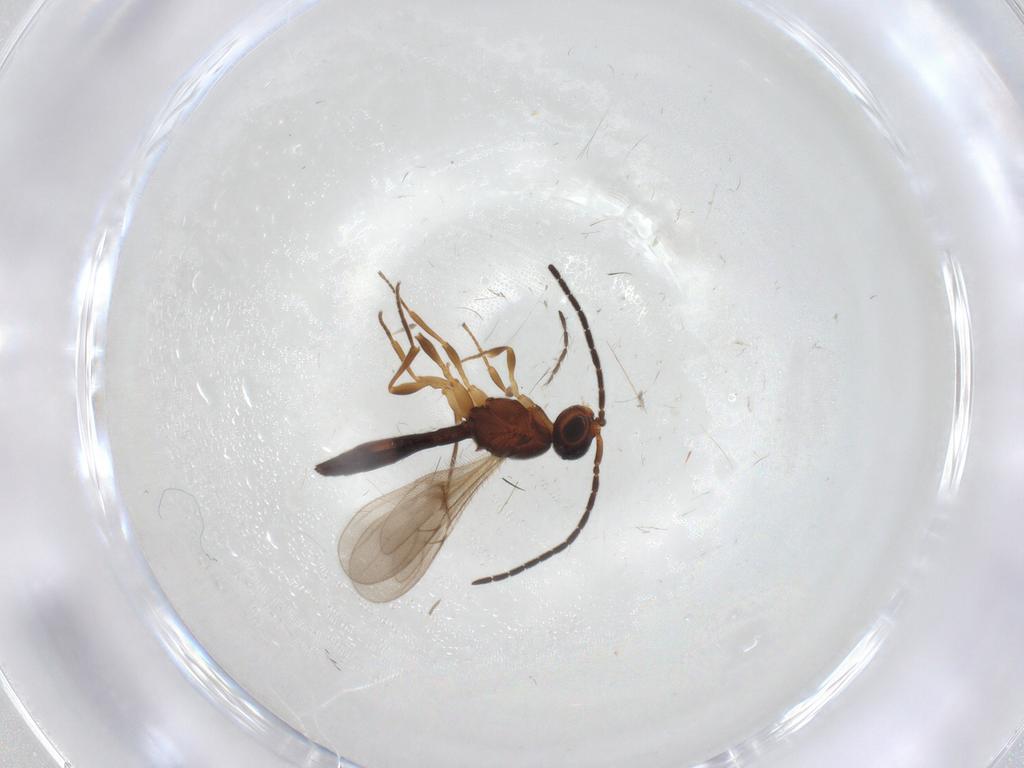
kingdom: Animalia
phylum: Arthropoda
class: Insecta
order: Hymenoptera
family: Scelionidae
